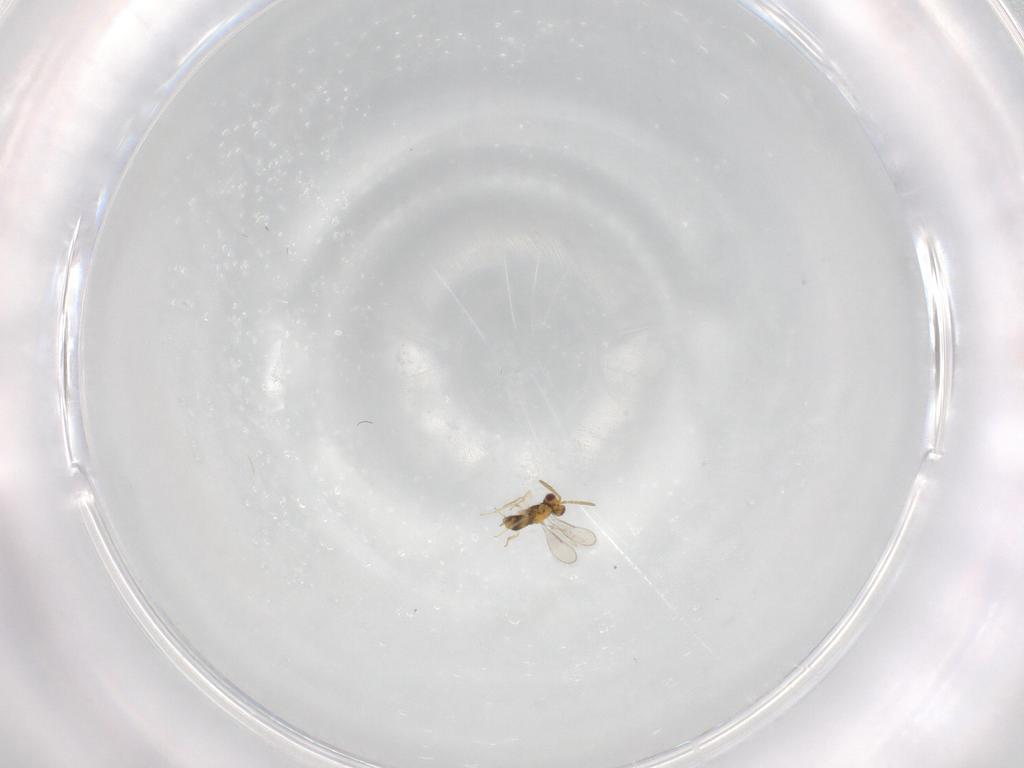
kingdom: Animalia
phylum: Arthropoda
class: Insecta
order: Hymenoptera
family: Aphelinidae
